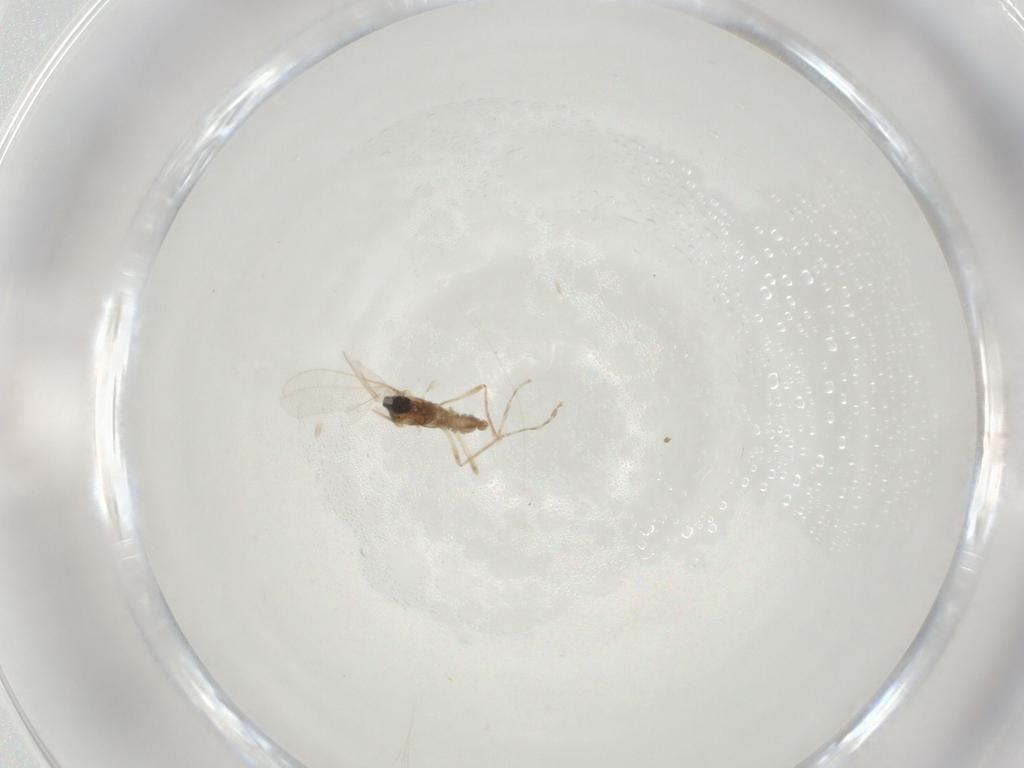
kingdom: Animalia
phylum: Arthropoda
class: Insecta
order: Diptera
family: Cecidomyiidae
